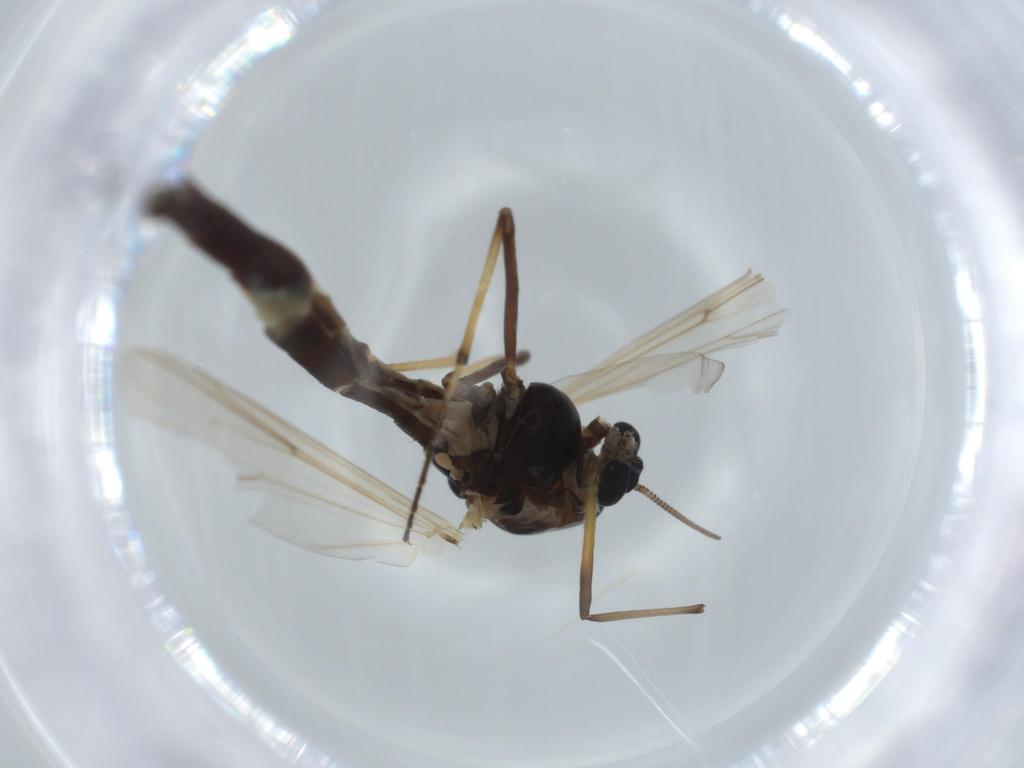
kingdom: Animalia
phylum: Arthropoda
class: Insecta
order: Diptera
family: Chironomidae
